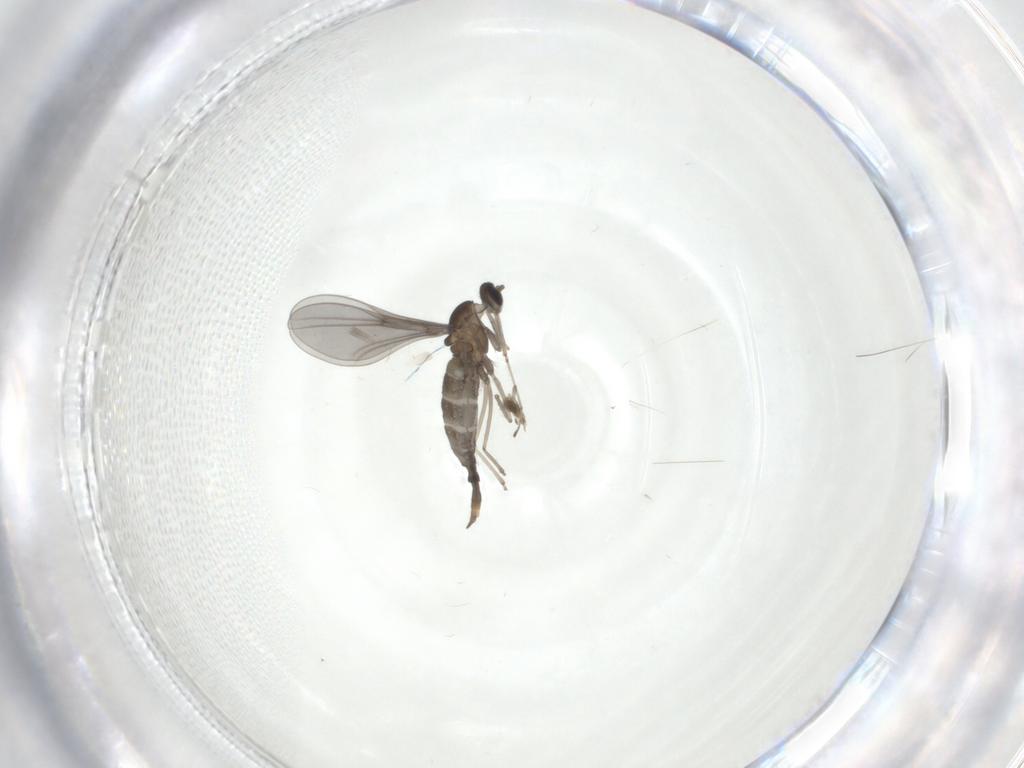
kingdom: Animalia
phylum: Arthropoda
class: Insecta
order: Diptera
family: Cecidomyiidae
